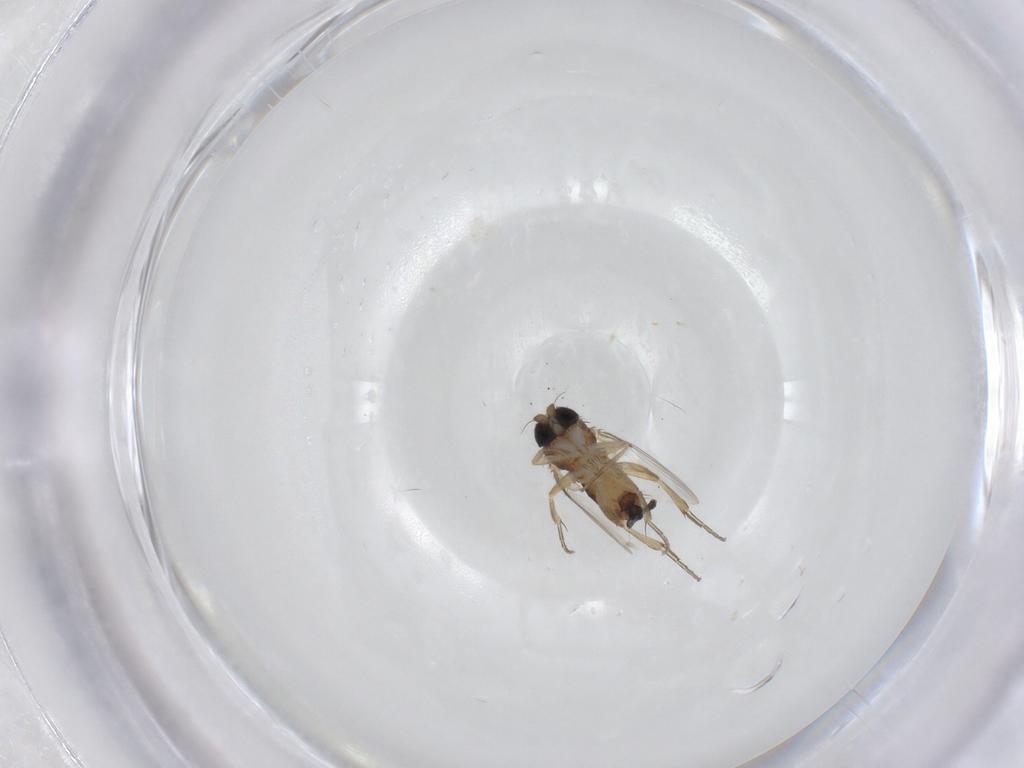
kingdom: Animalia
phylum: Arthropoda
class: Insecta
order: Diptera
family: Phoridae
